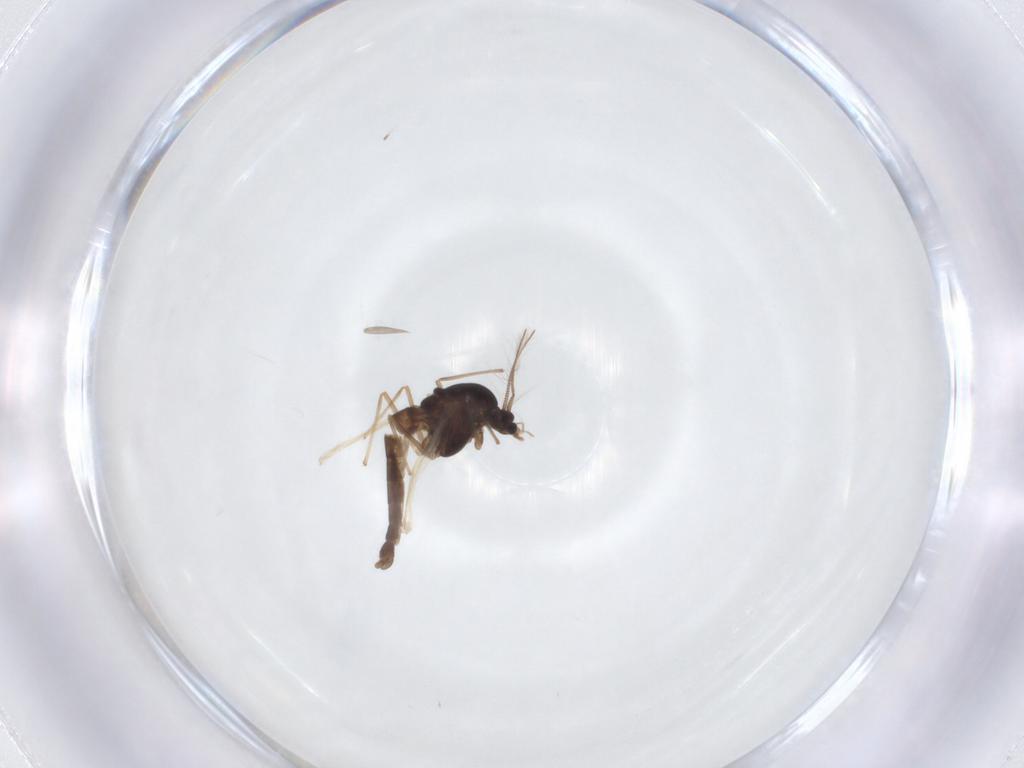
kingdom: Animalia
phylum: Arthropoda
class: Insecta
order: Diptera
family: Chironomidae
